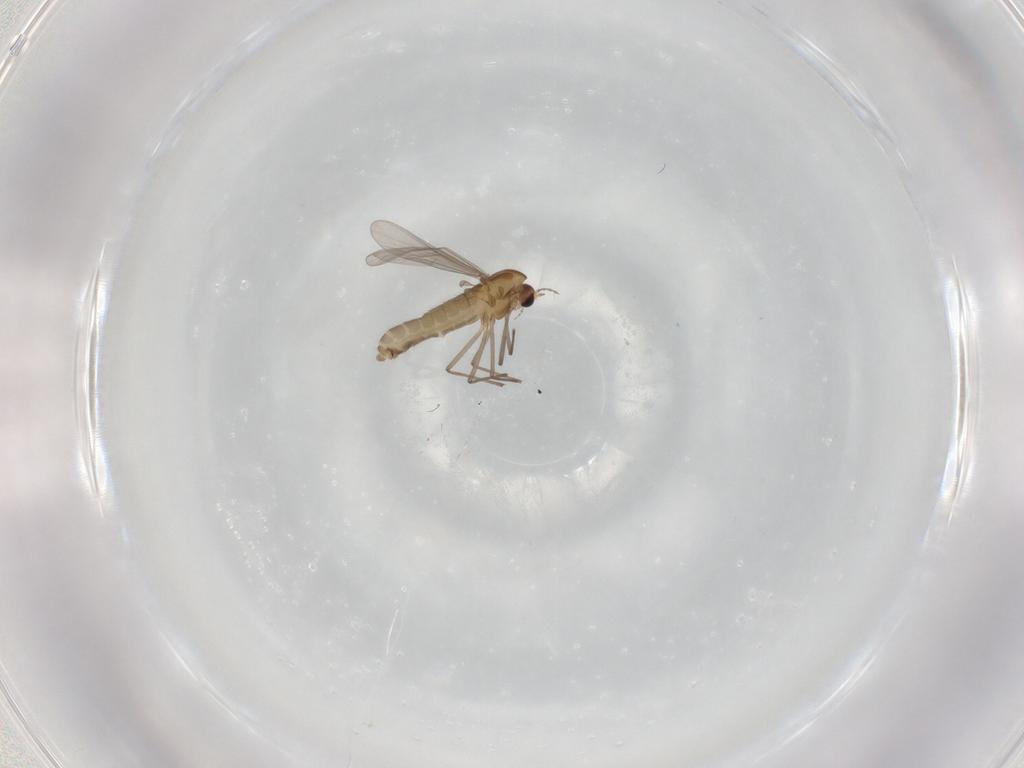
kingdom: Animalia
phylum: Arthropoda
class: Insecta
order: Diptera
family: Phoridae
